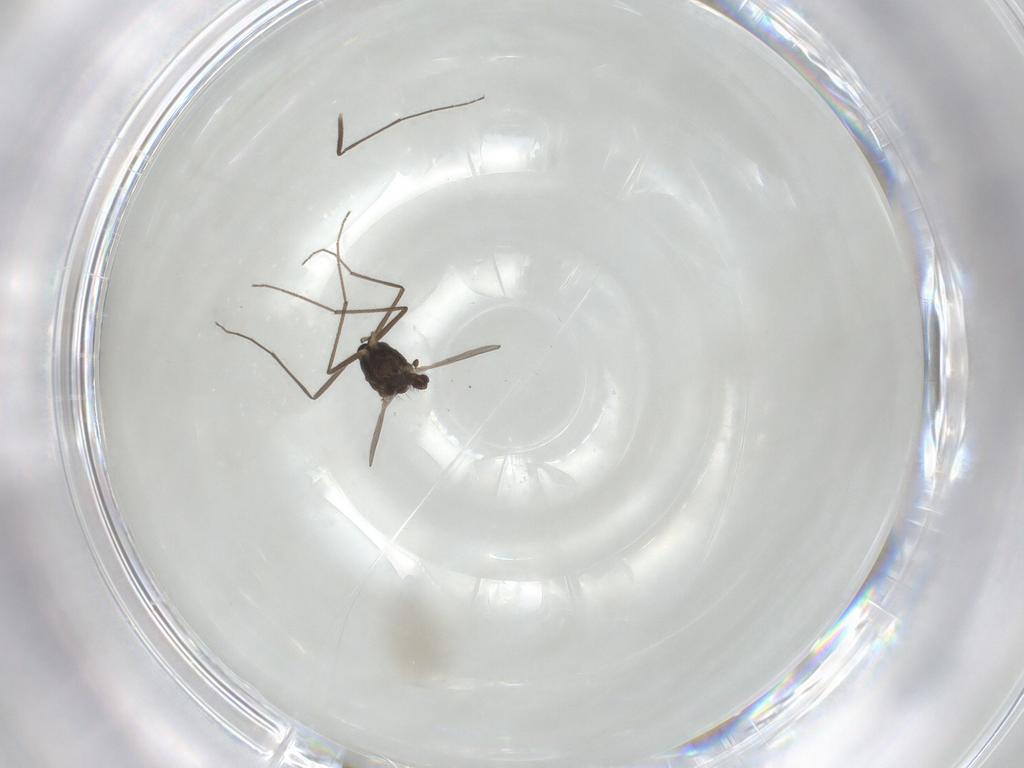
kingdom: Animalia
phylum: Arthropoda
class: Insecta
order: Diptera
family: Chironomidae
